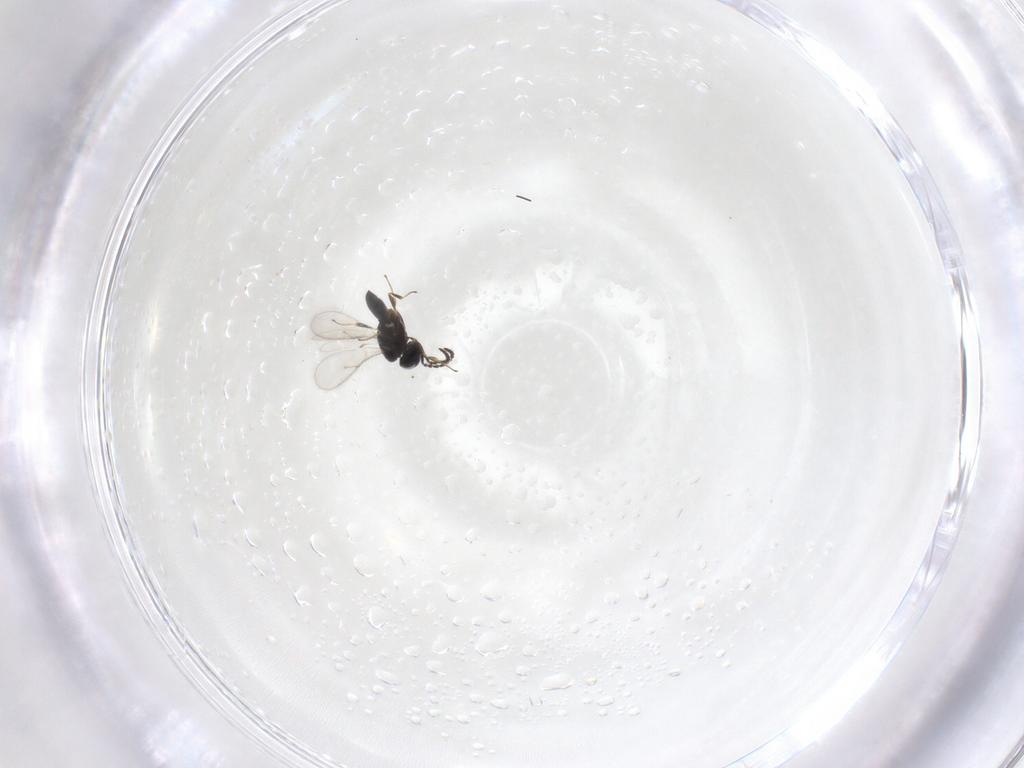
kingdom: Animalia
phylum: Arthropoda
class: Insecta
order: Hymenoptera
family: Scelionidae
